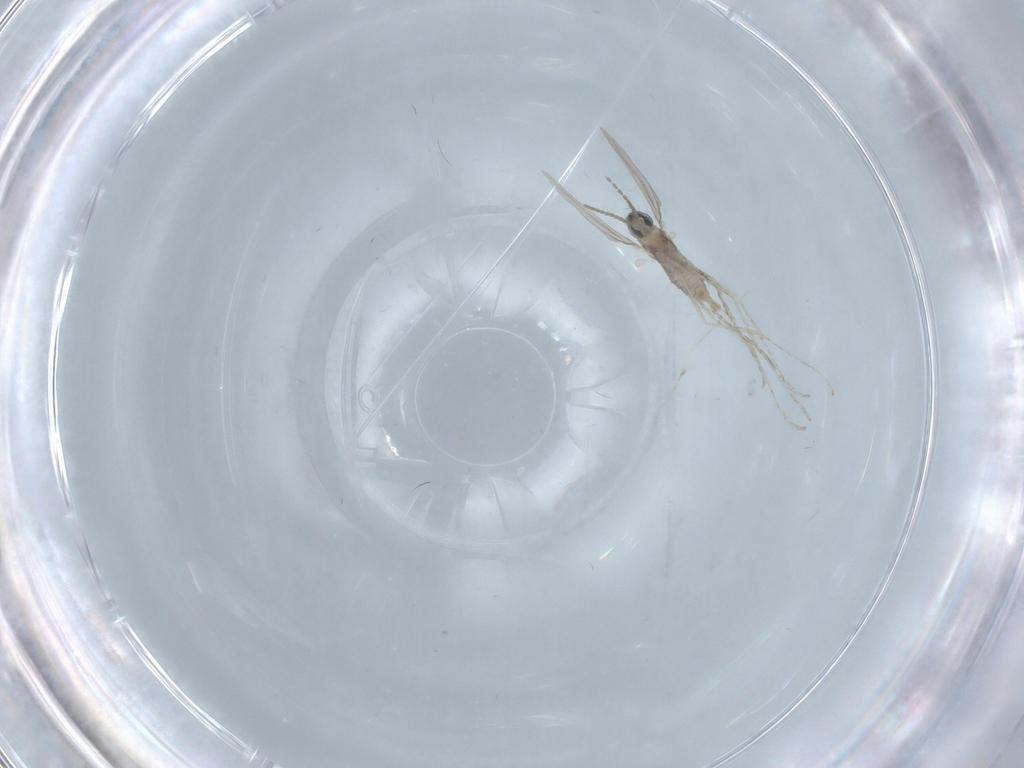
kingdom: Animalia
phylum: Arthropoda
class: Insecta
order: Diptera
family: Cecidomyiidae
